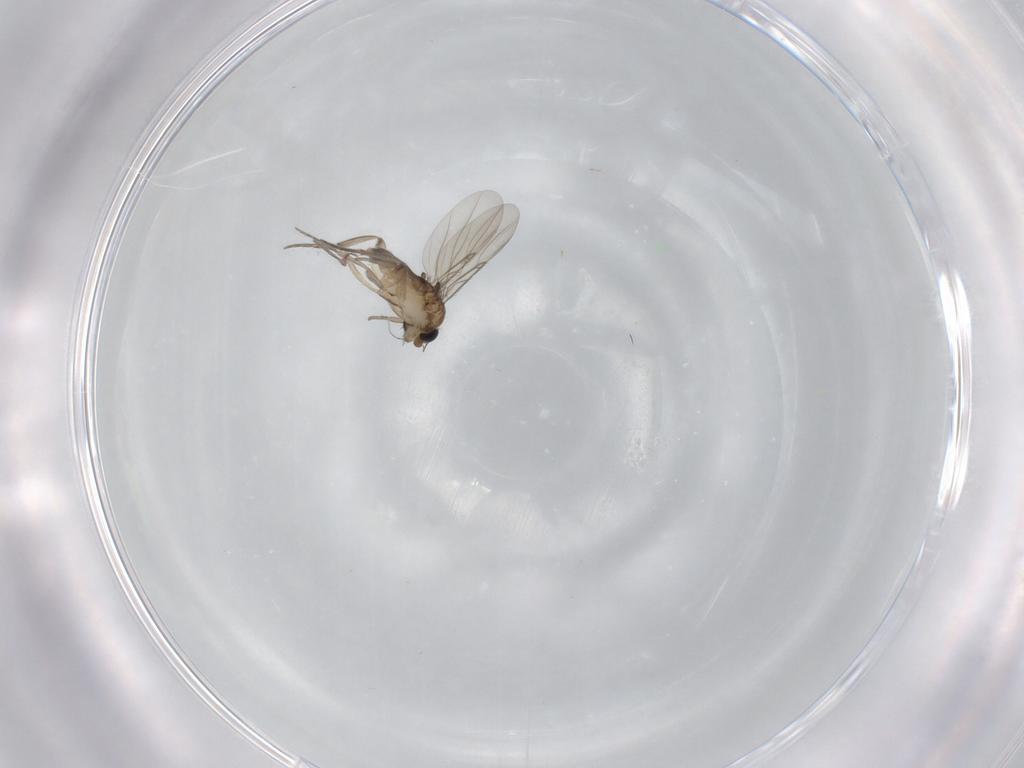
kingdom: Animalia
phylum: Arthropoda
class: Insecta
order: Diptera
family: Phoridae
